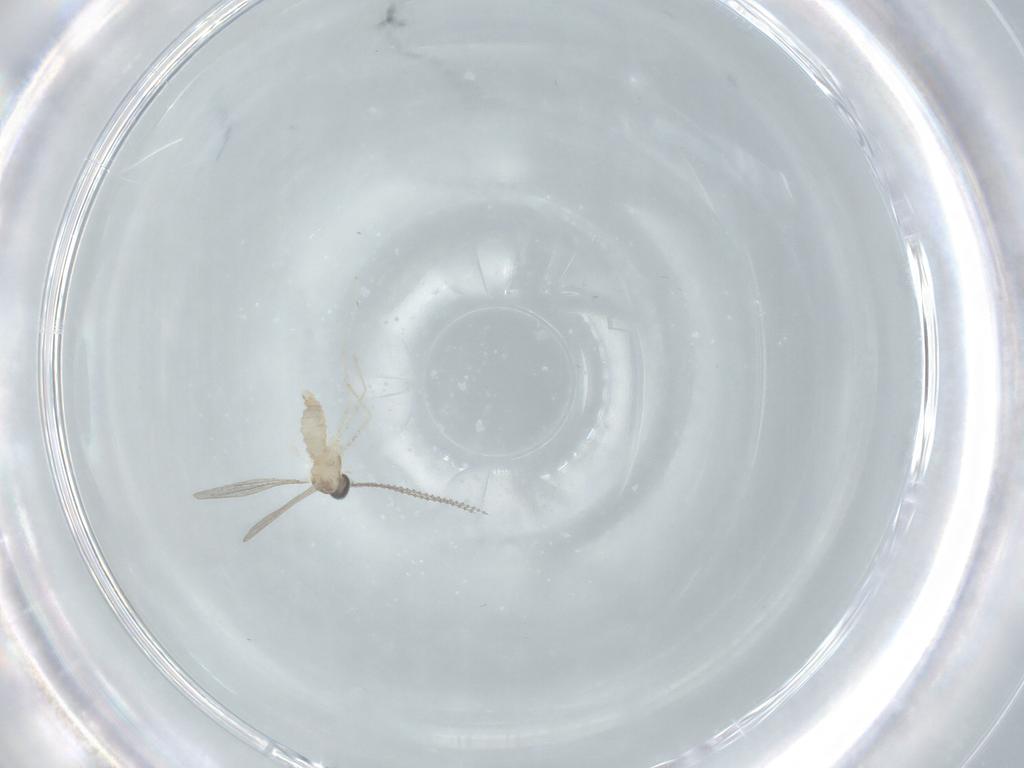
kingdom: Animalia
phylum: Arthropoda
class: Insecta
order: Diptera
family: Cecidomyiidae
